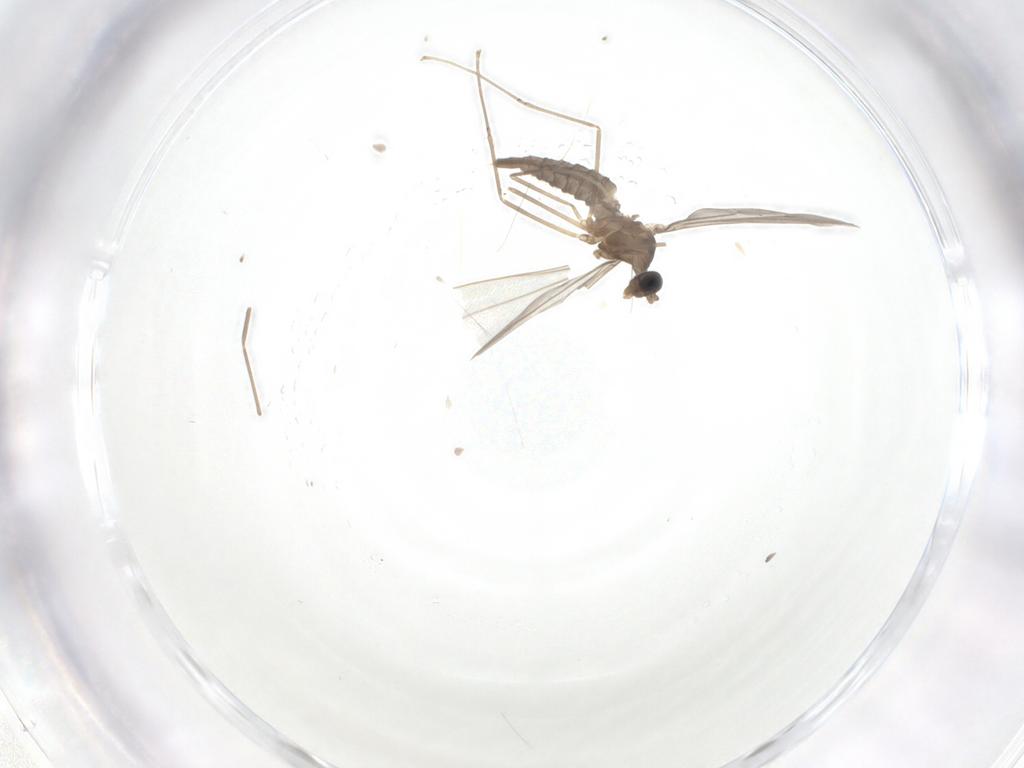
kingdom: Animalia
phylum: Arthropoda
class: Insecta
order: Diptera
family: Cecidomyiidae
